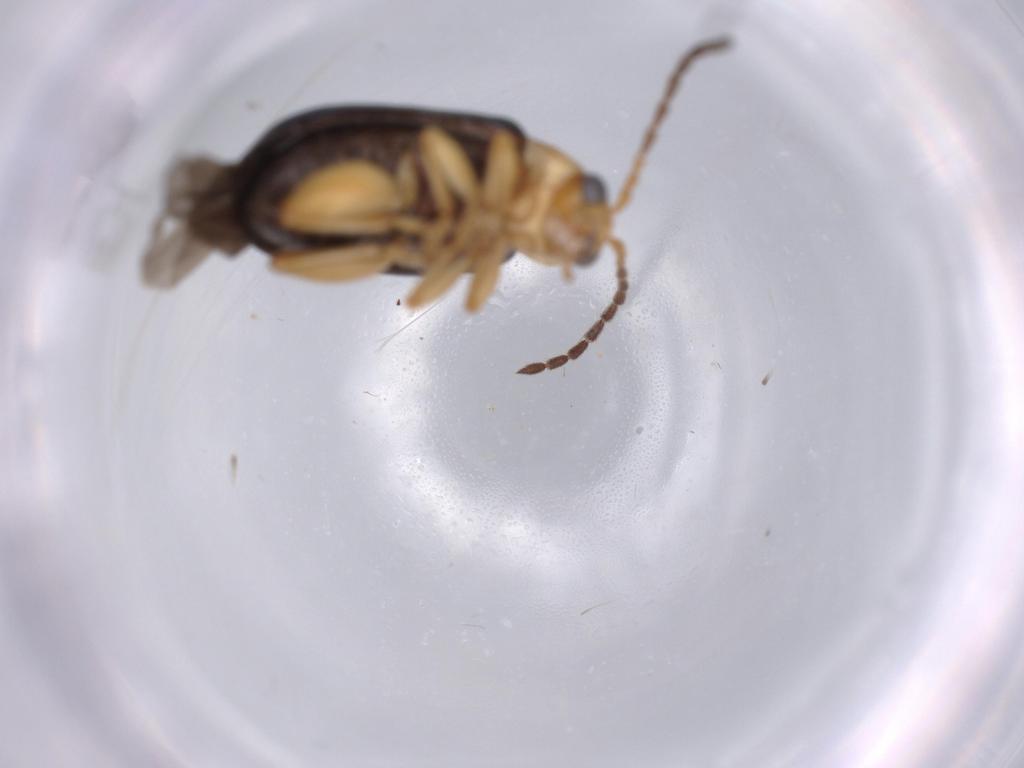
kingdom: Animalia
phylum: Arthropoda
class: Insecta
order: Coleoptera
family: Chrysomelidae
